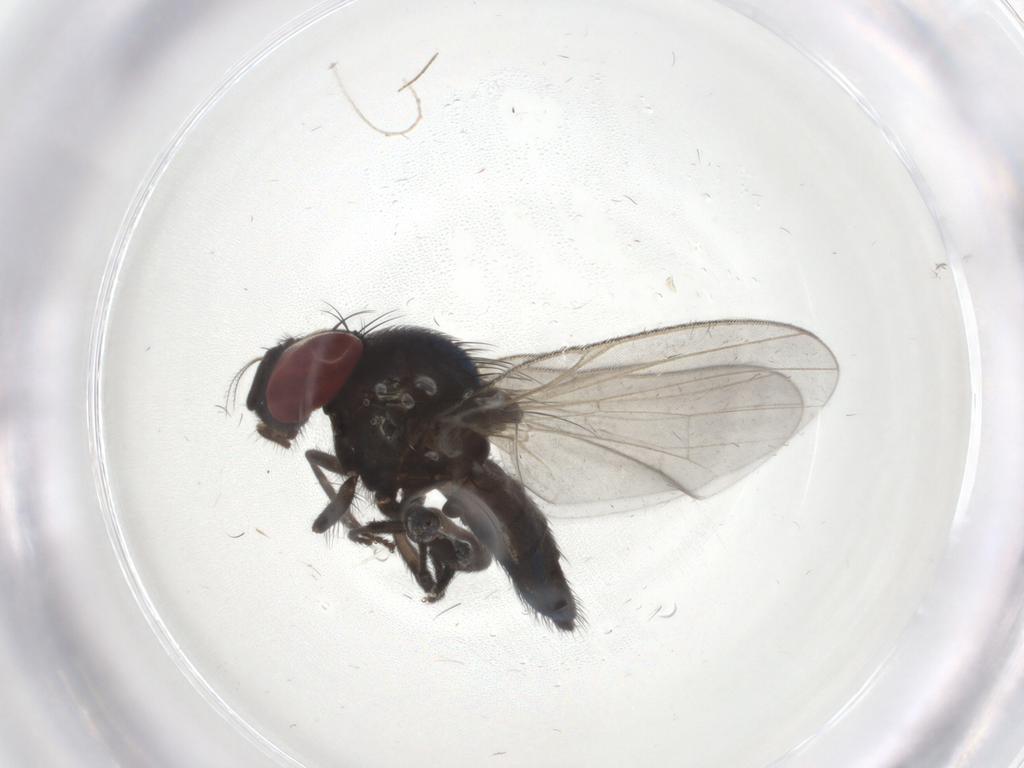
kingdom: Animalia
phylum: Arthropoda
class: Insecta
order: Diptera
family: Lonchaeidae
